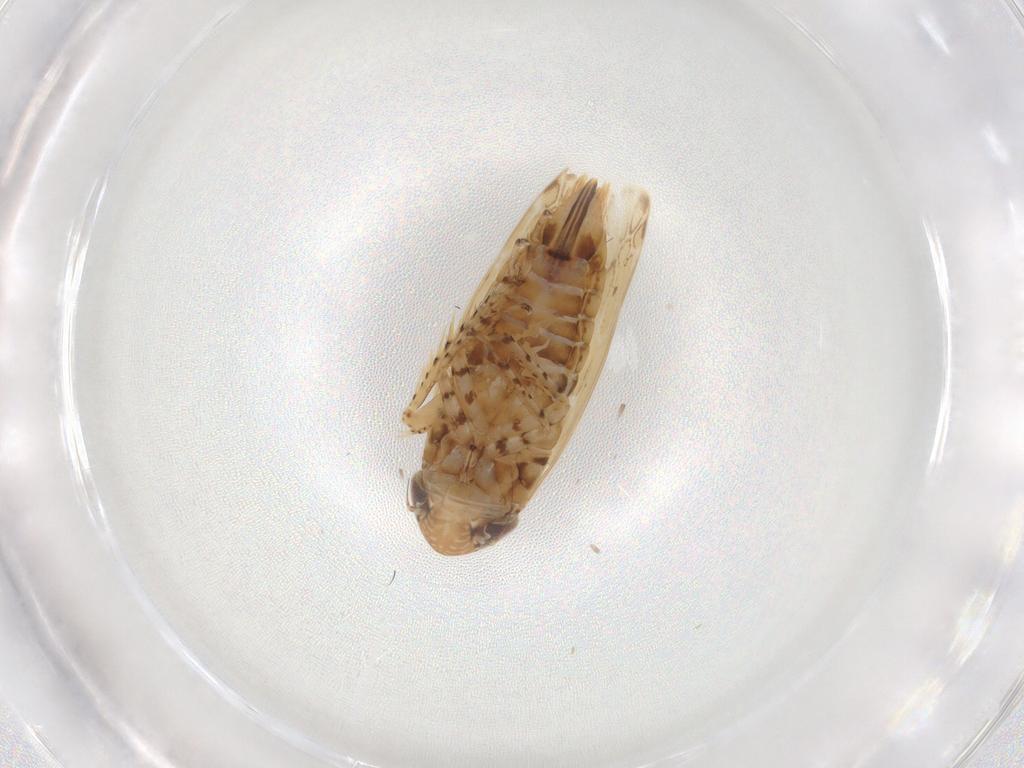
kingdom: Animalia
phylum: Arthropoda
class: Insecta
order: Hemiptera
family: Cicadellidae
